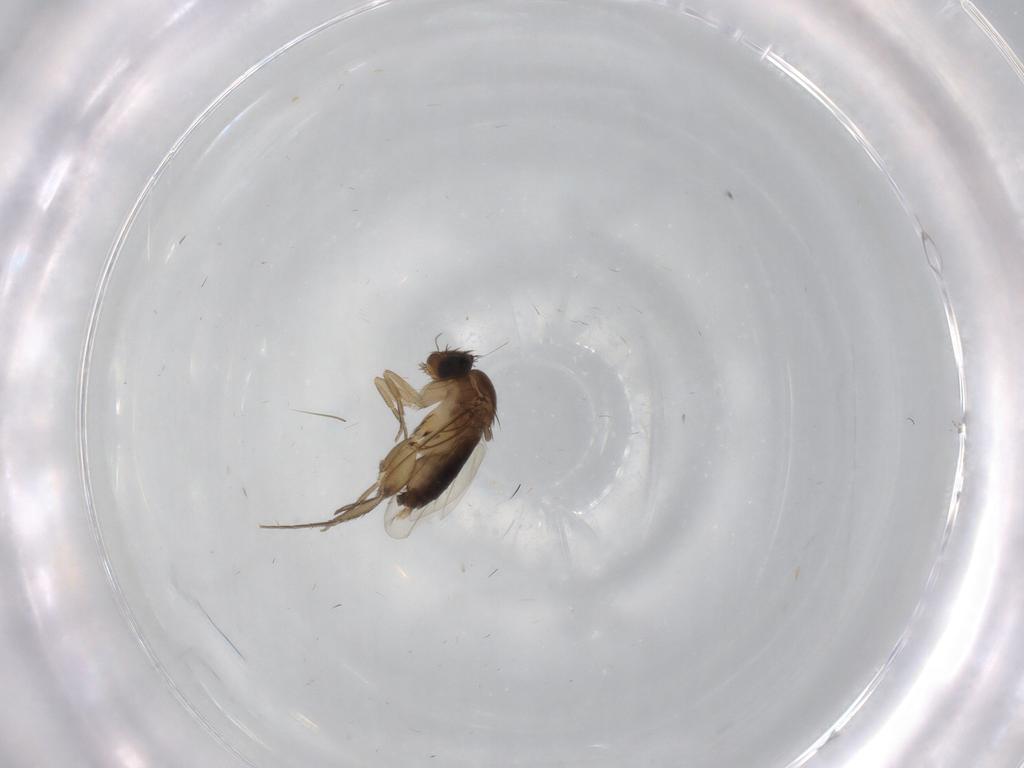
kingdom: Animalia
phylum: Arthropoda
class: Insecta
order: Diptera
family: Phoridae
